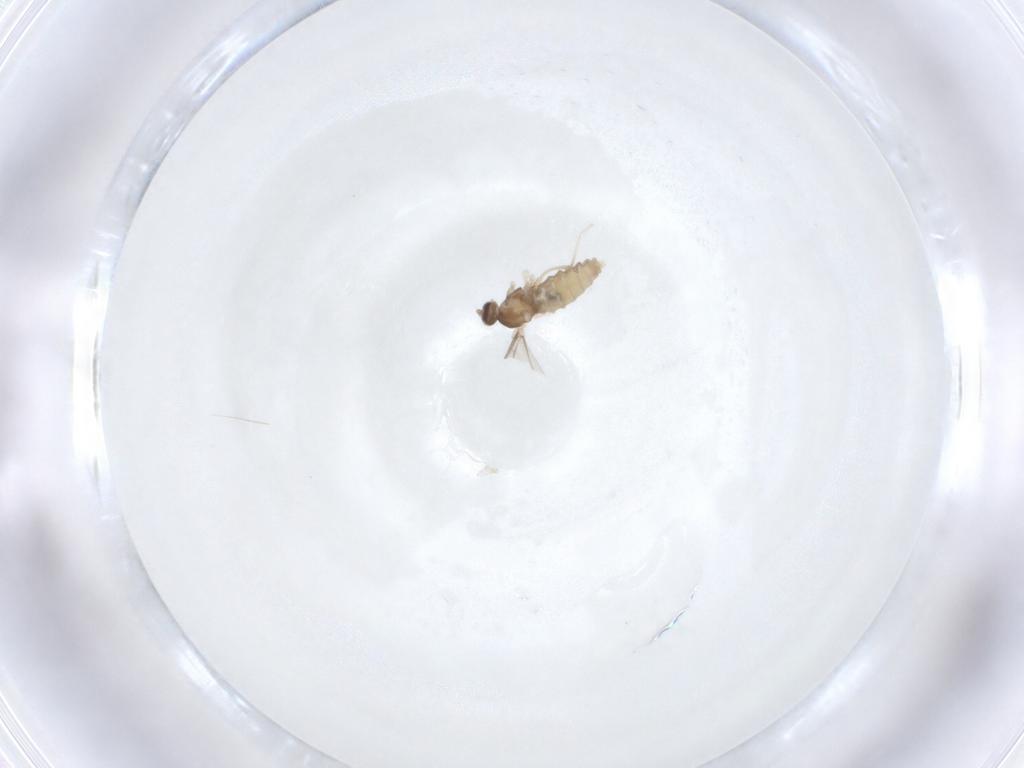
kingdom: Animalia
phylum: Arthropoda
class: Insecta
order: Diptera
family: Cecidomyiidae
